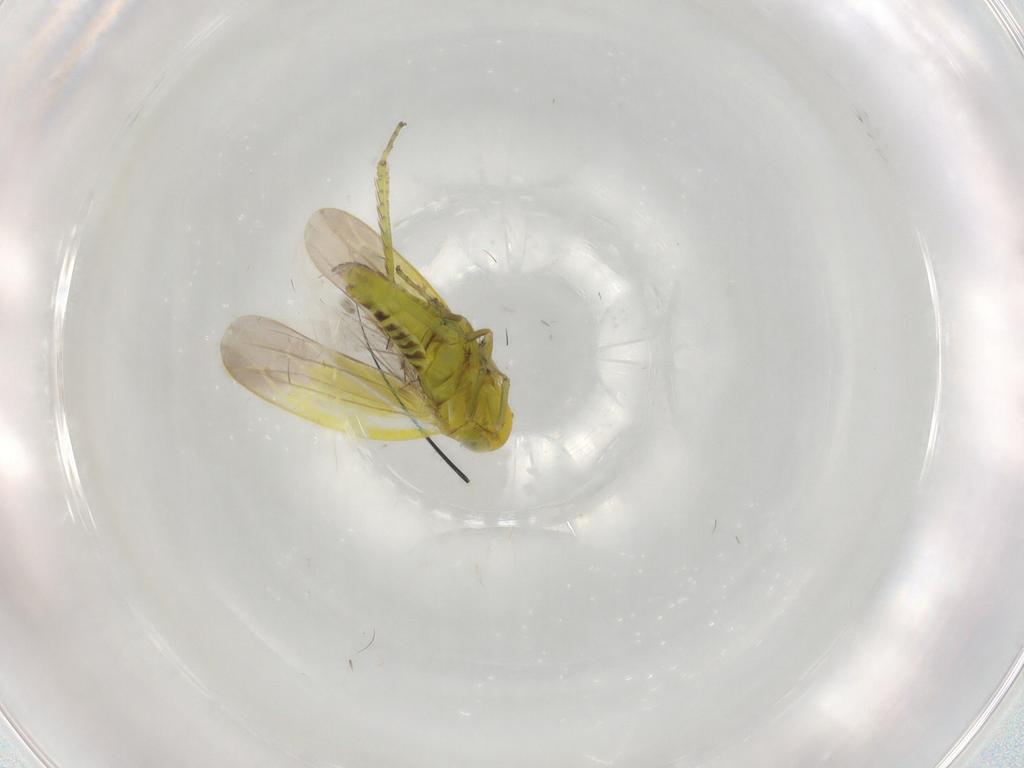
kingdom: Animalia
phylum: Arthropoda
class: Insecta
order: Hemiptera
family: Cicadellidae
